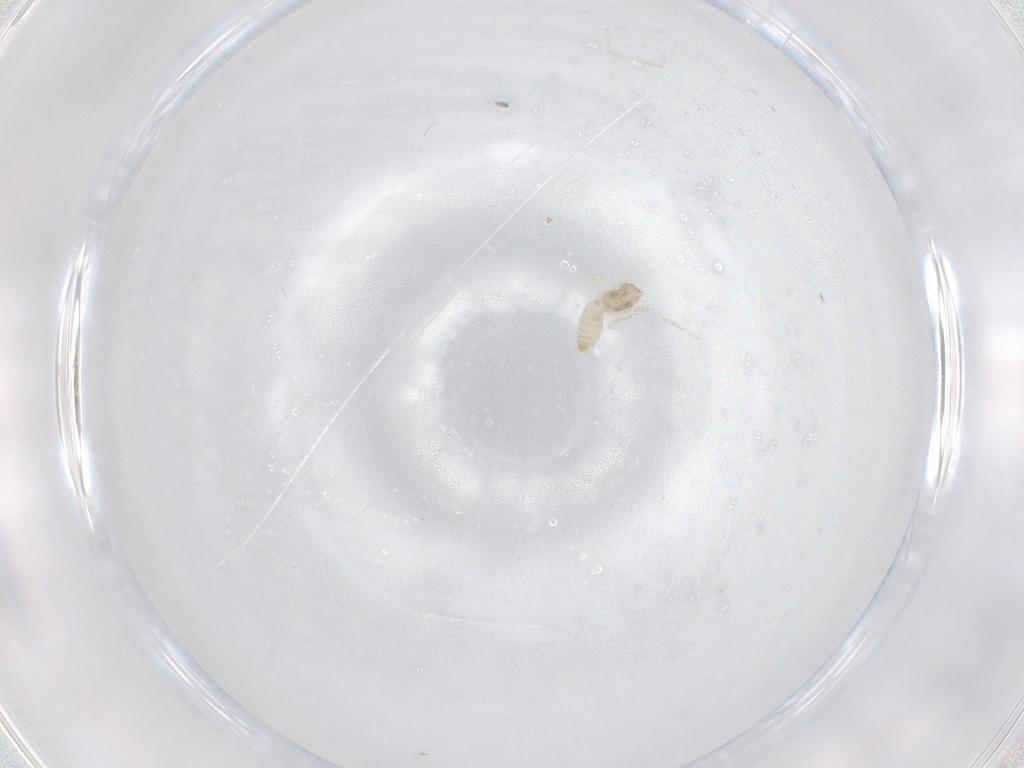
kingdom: Animalia
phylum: Arthropoda
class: Insecta
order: Diptera
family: Cecidomyiidae
